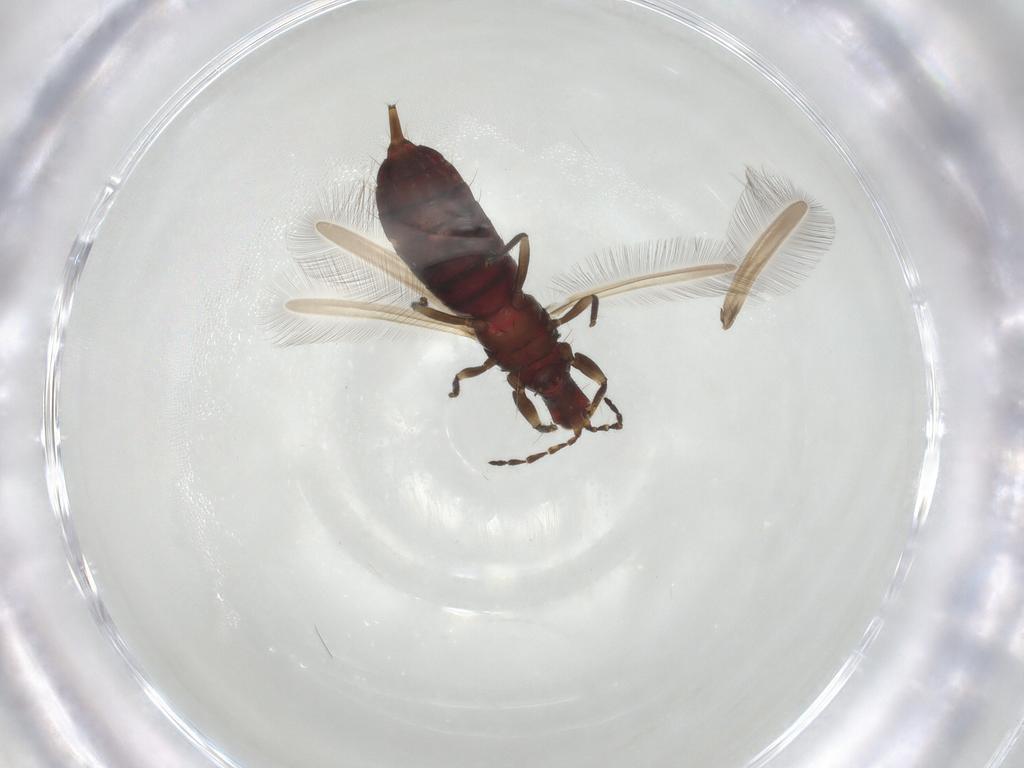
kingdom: Animalia
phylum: Arthropoda
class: Insecta
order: Thysanoptera
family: Phlaeothripidae
